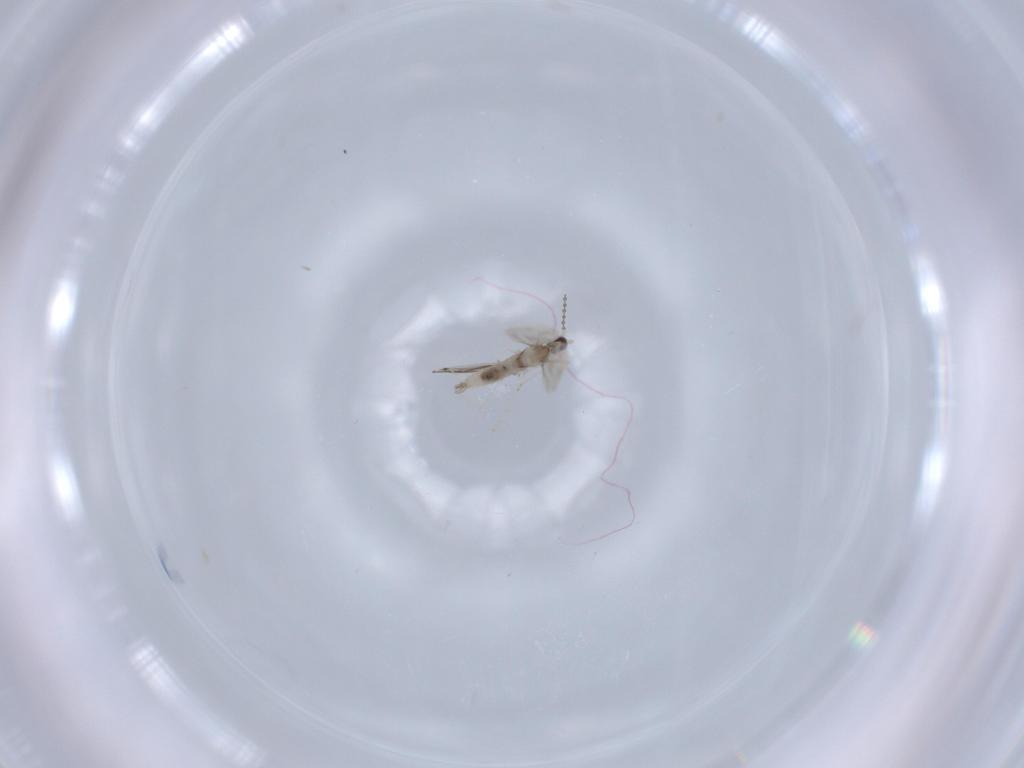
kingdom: Animalia
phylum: Arthropoda
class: Insecta
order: Diptera
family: Cecidomyiidae
